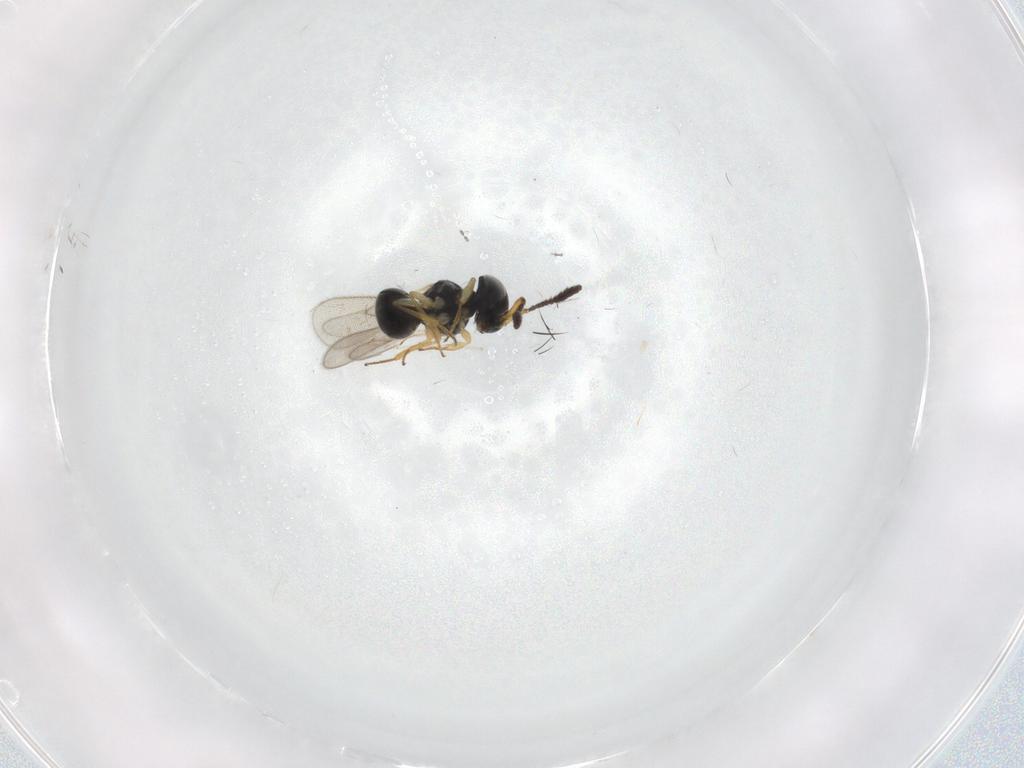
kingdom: Animalia
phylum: Arthropoda
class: Insecta
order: Hymenoptera
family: Scelionidae
